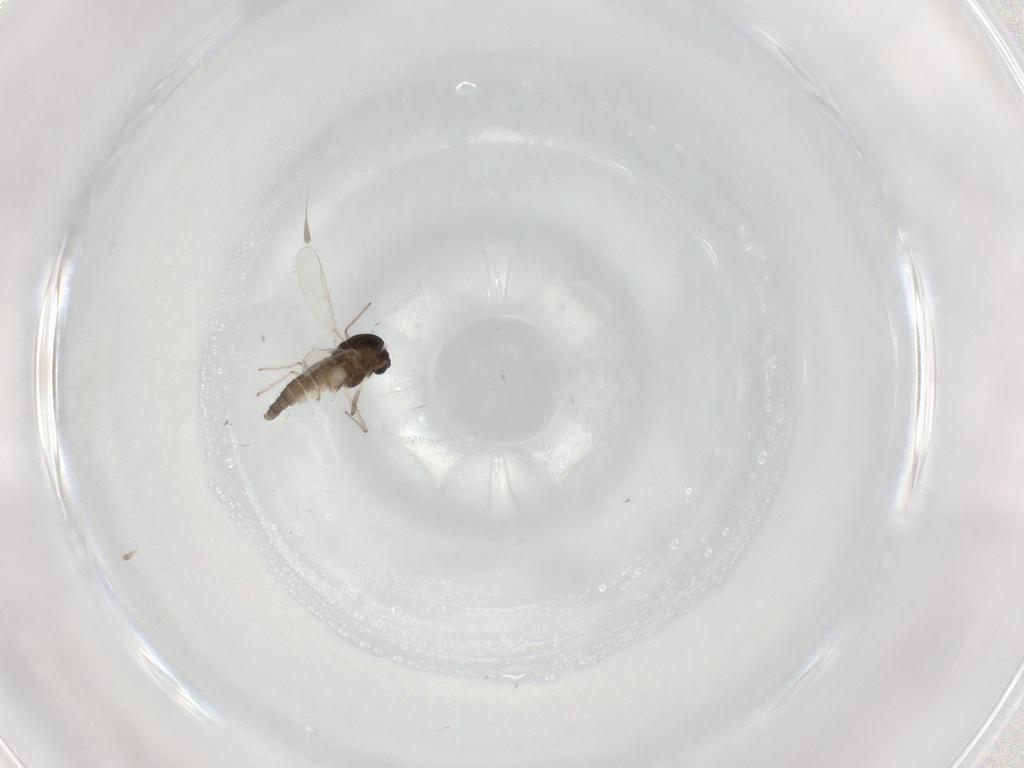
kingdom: Animalia
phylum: Arthropoda
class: Insecta
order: Diptera
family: Chironomidae
